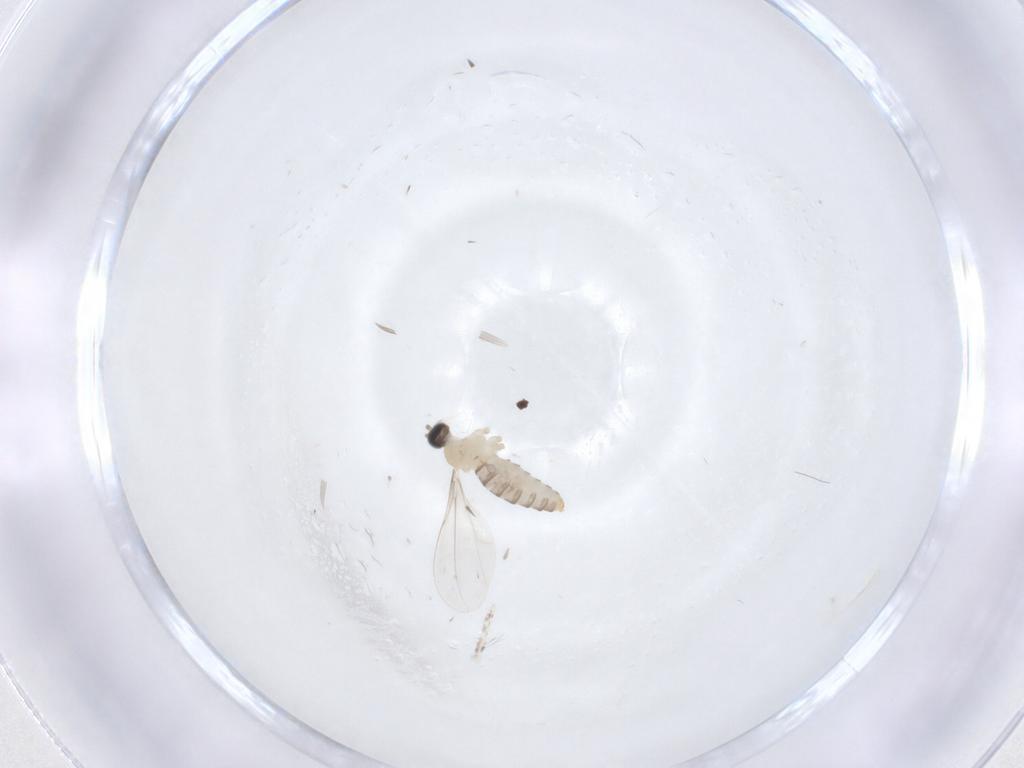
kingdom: Animalia
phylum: Arthropoda
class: Insecta
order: Diptera
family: Cecidomyiidae
